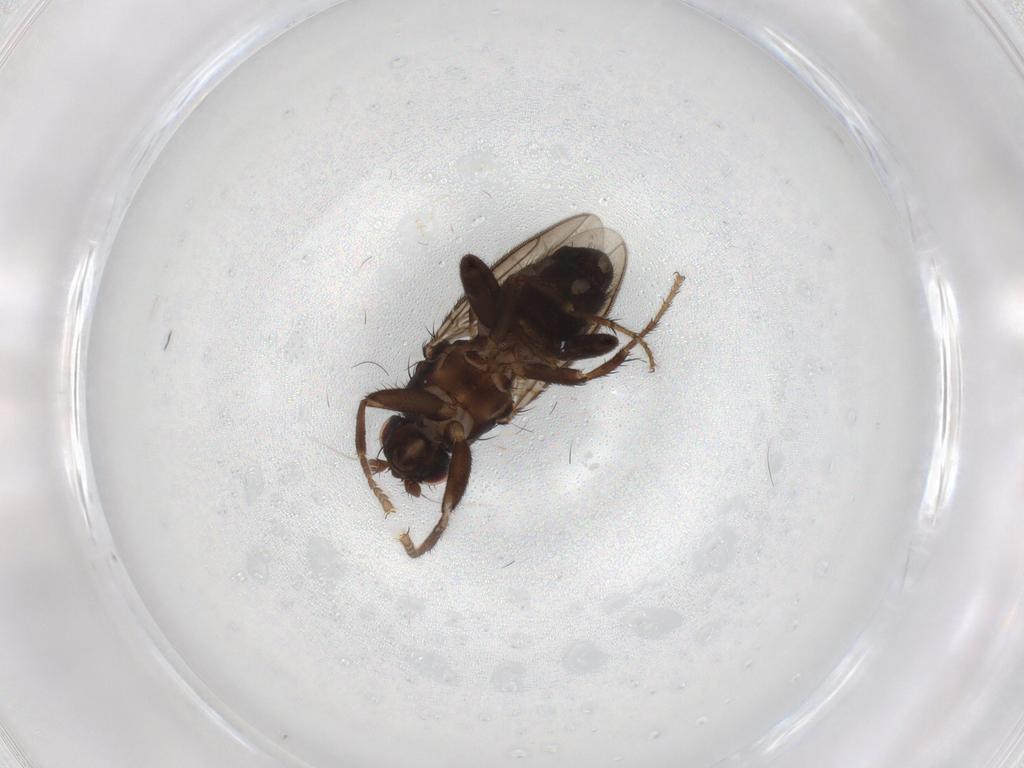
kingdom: Animalia
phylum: Arthropoda
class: Insecta
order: Diptera
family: Sphaeroceridae
